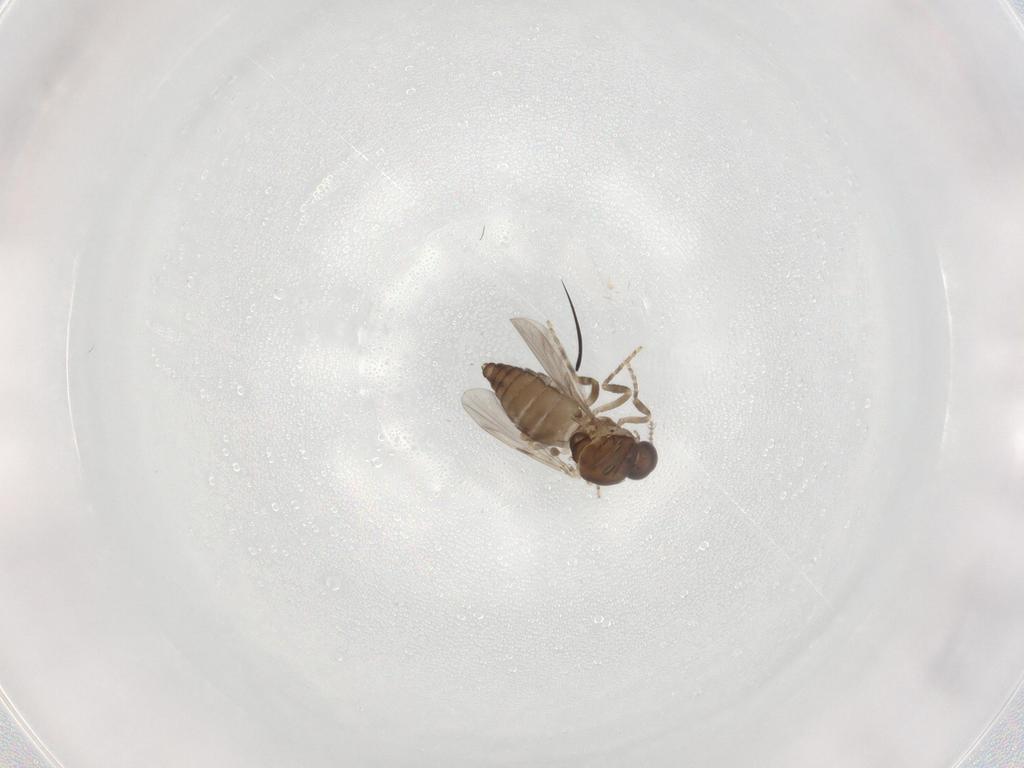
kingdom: Animalia
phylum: Arthropoda
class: Insecta
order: Diptera
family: Ceratopogonidae
